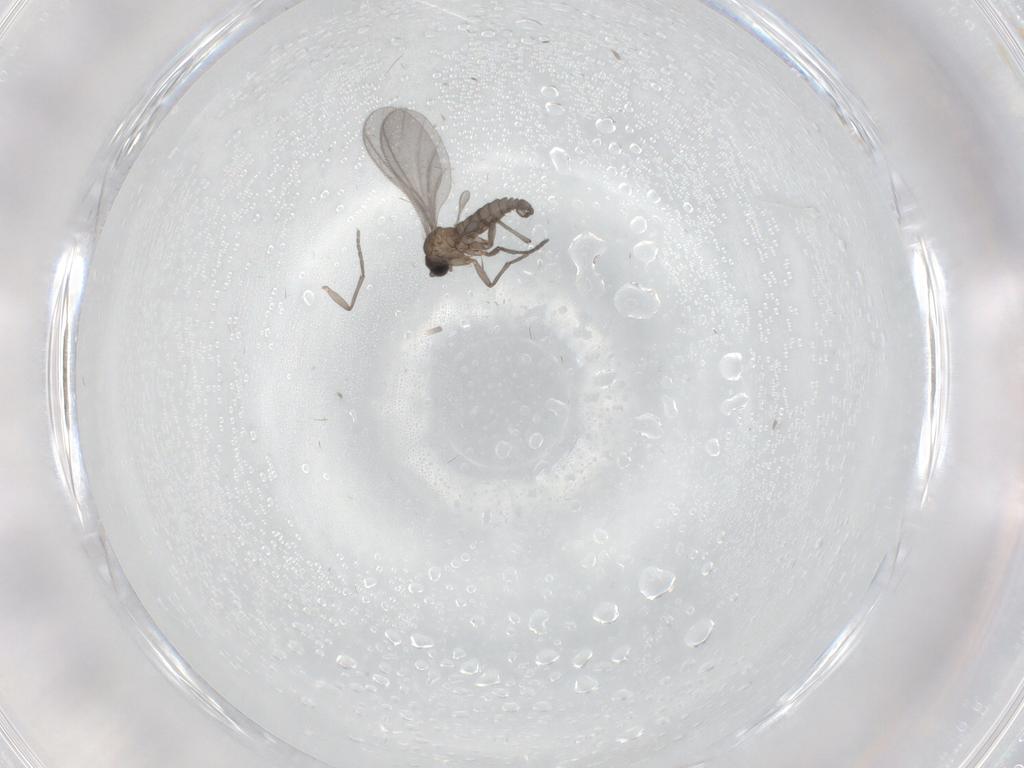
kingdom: Animalia
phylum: Arthropoda
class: Insecta
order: Diptera
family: Sciaridae
